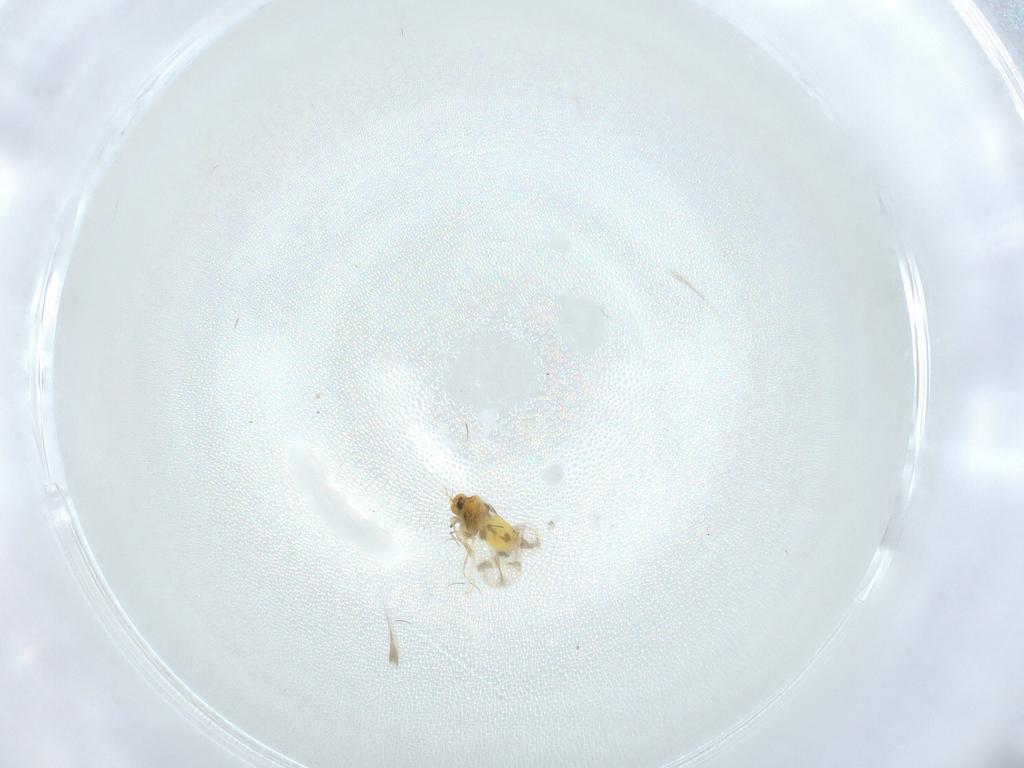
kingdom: Animalia
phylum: Arthropoda
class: Insecta
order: Hemiptera
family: Aleyrodidae
